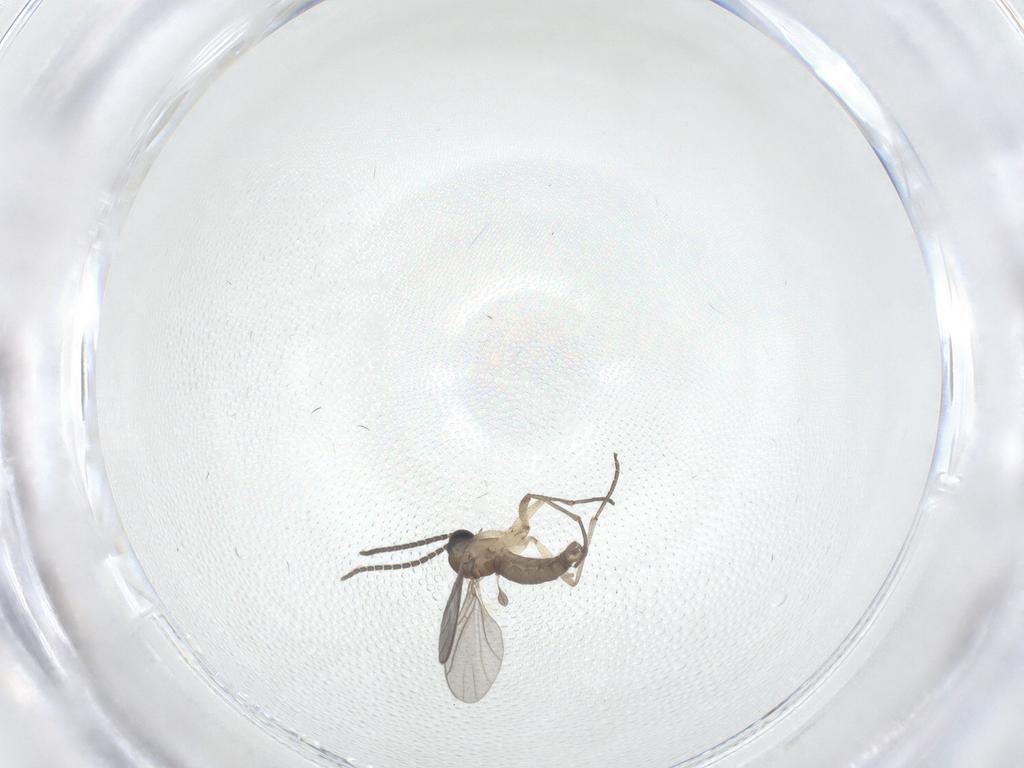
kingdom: Animalia
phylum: Arthropoda
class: Insecta
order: Diptera
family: Sciaridae
